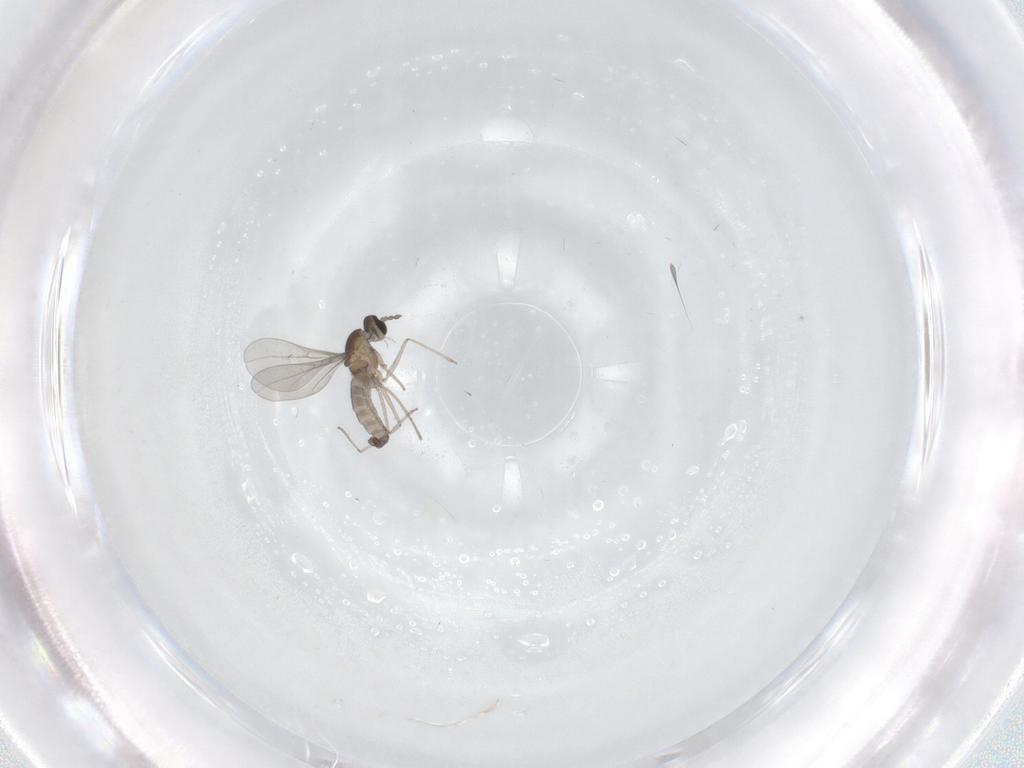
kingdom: Animalia
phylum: Arthropoda
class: Insecta
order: Diptera
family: Cecidomyiidae
